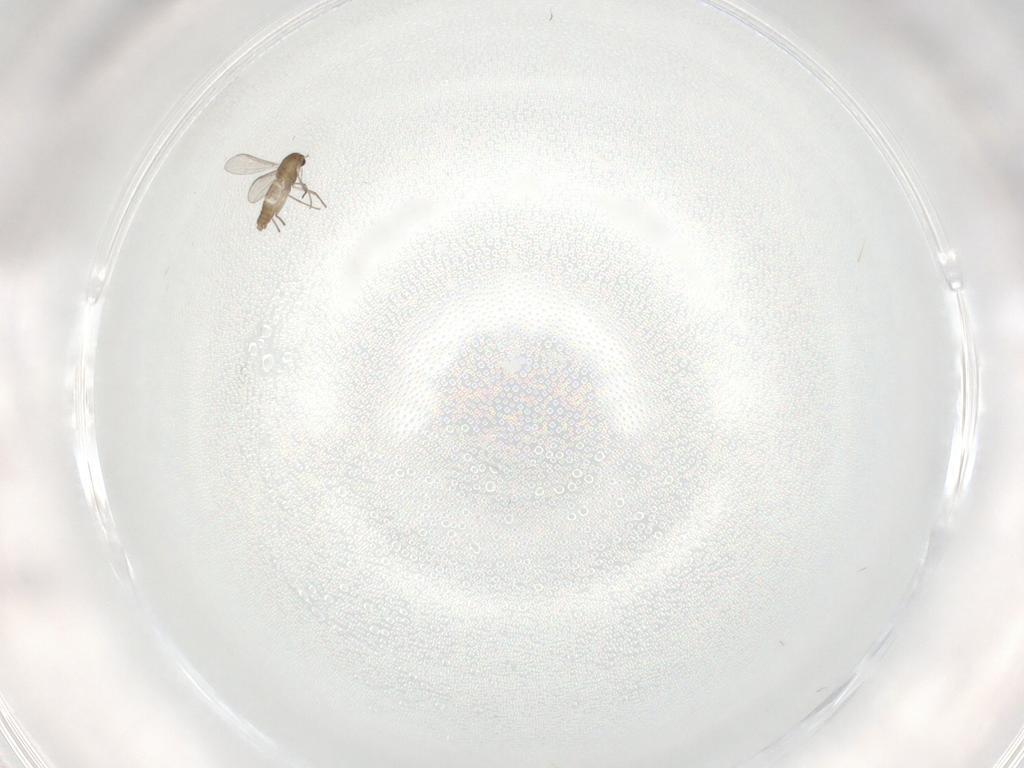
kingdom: Animalia
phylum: Arthropoda
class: Insecta
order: Diptera
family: Chironomidae
